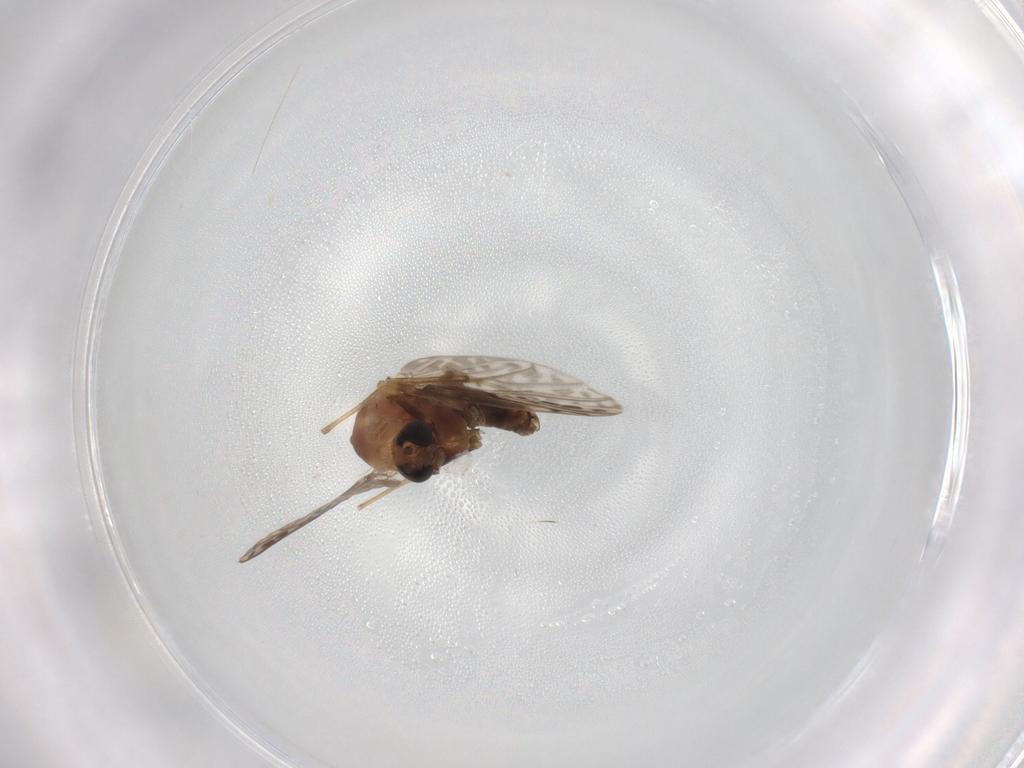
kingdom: Animalia
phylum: Arthropoda
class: Insecta
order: Diptera
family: Chironomidae
